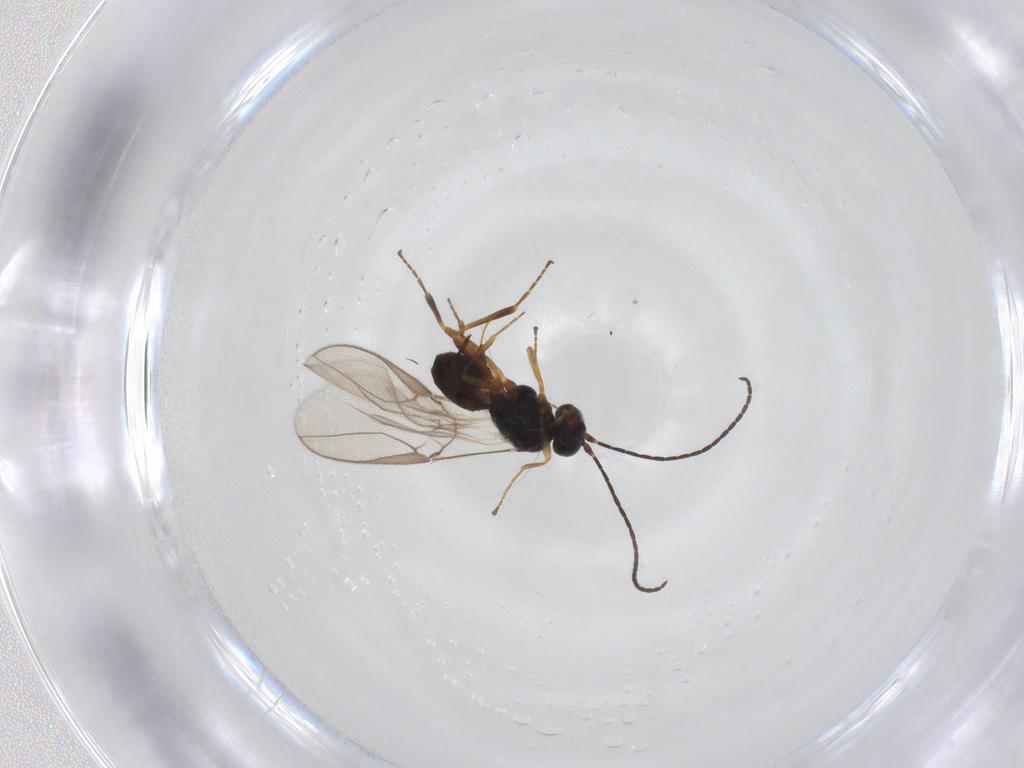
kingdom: Animalia
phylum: Arthropoda
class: Insecta
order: Hymenoptera
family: Braconidae
